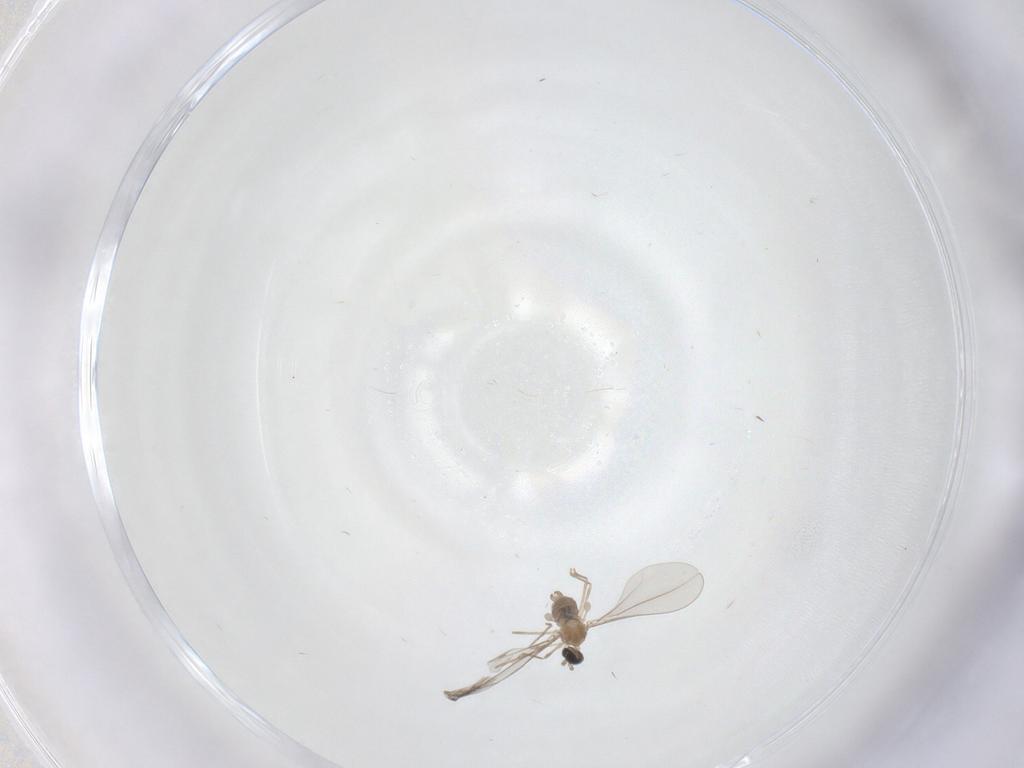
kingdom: Animalia
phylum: Arthropoda
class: Insecta
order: Diptera
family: Cecidomyiidae
